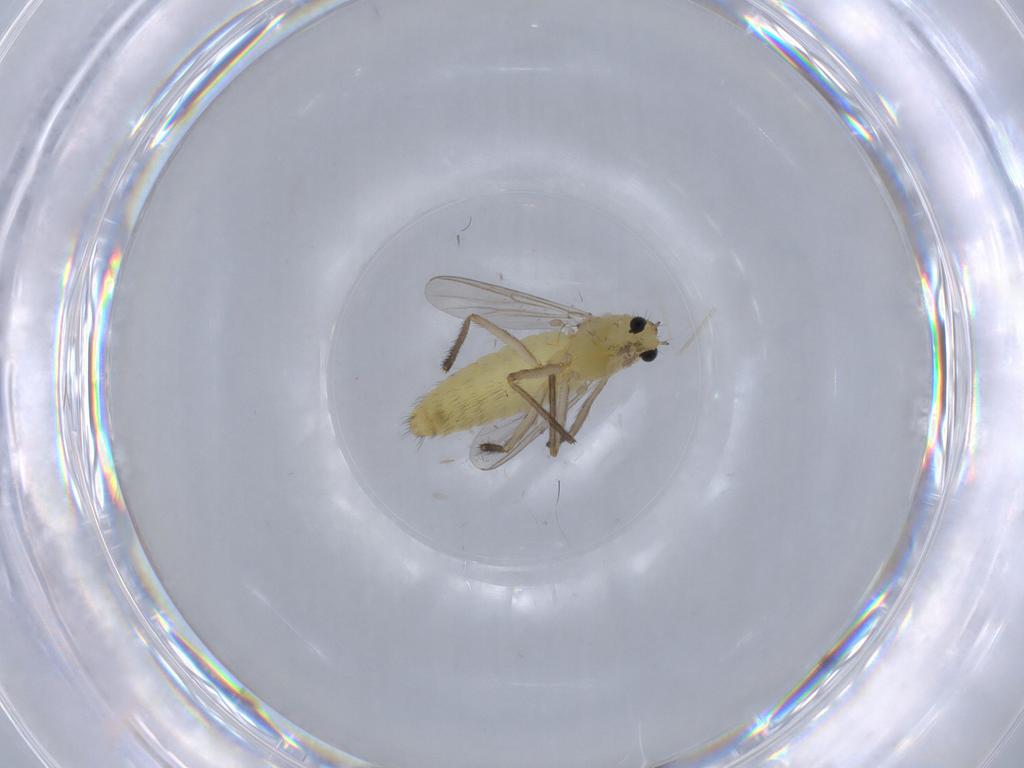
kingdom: Animalia
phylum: Arthropoda
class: Insecta
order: Diptera
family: Chironomidae
